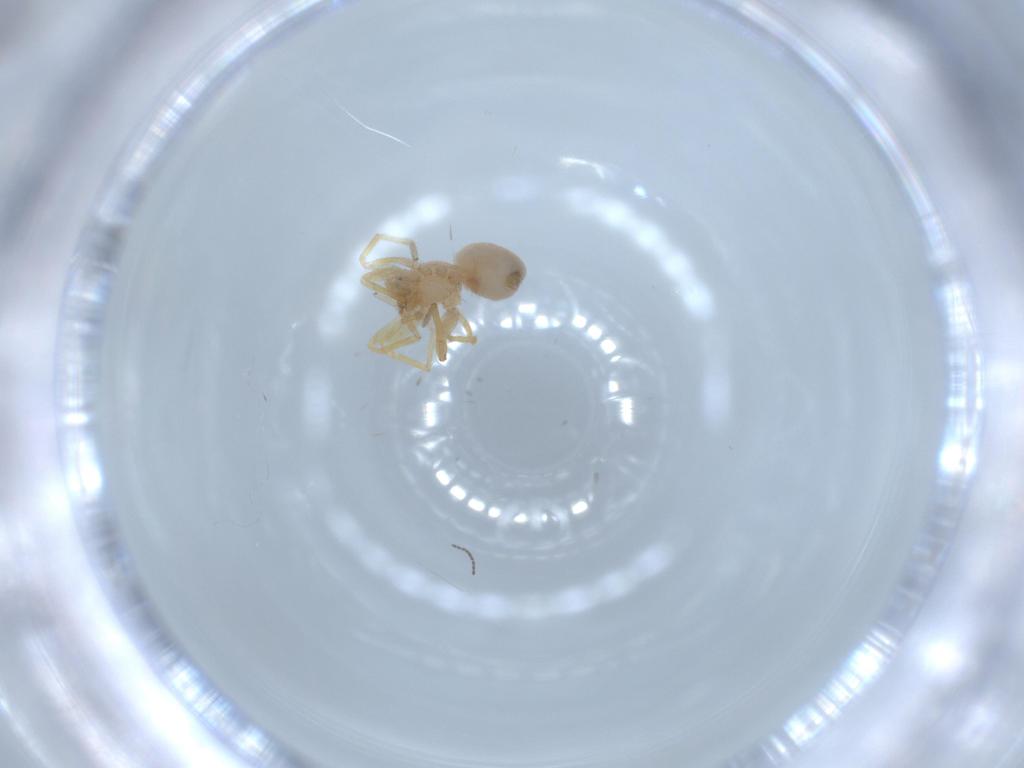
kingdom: Animalia
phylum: Arthropoda
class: Arachnida
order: Araneae
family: Oonopidae
